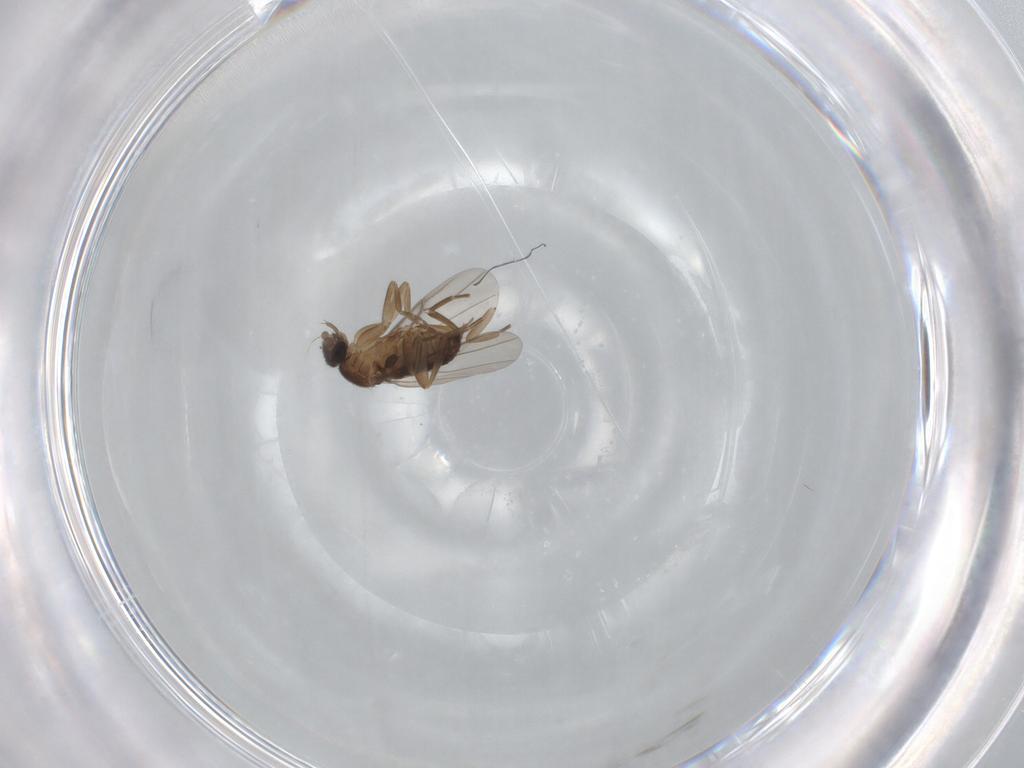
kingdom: Animalia
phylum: Arthropoda
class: Insecta
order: Diptera
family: Phoridae
